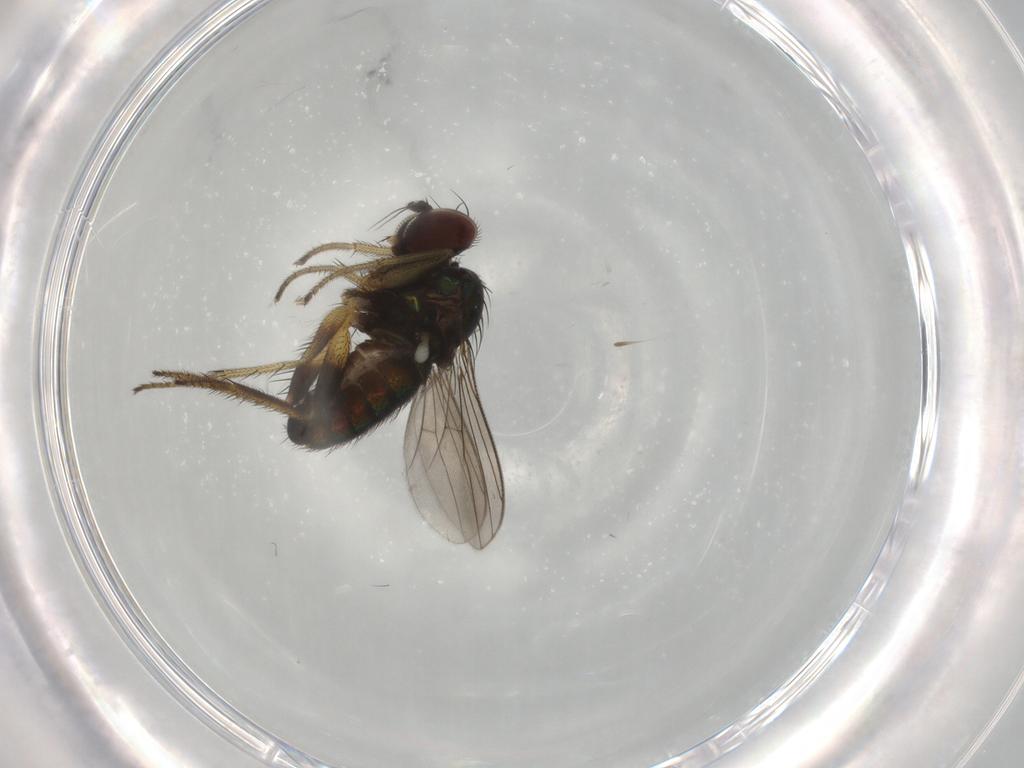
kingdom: Animalia
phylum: Arthropoda
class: Insecta
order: Diptera
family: Dolichopodidae
